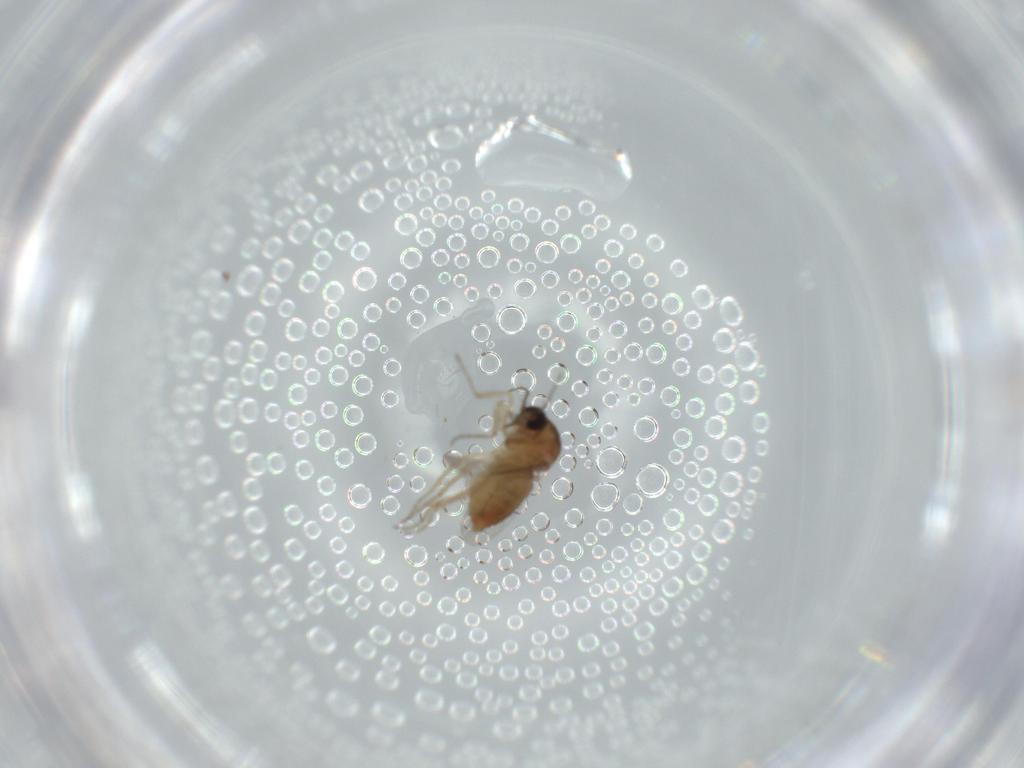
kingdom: Animalia
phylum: Arthropoda
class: Insecta
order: Diptera
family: Ceratopogonidae
